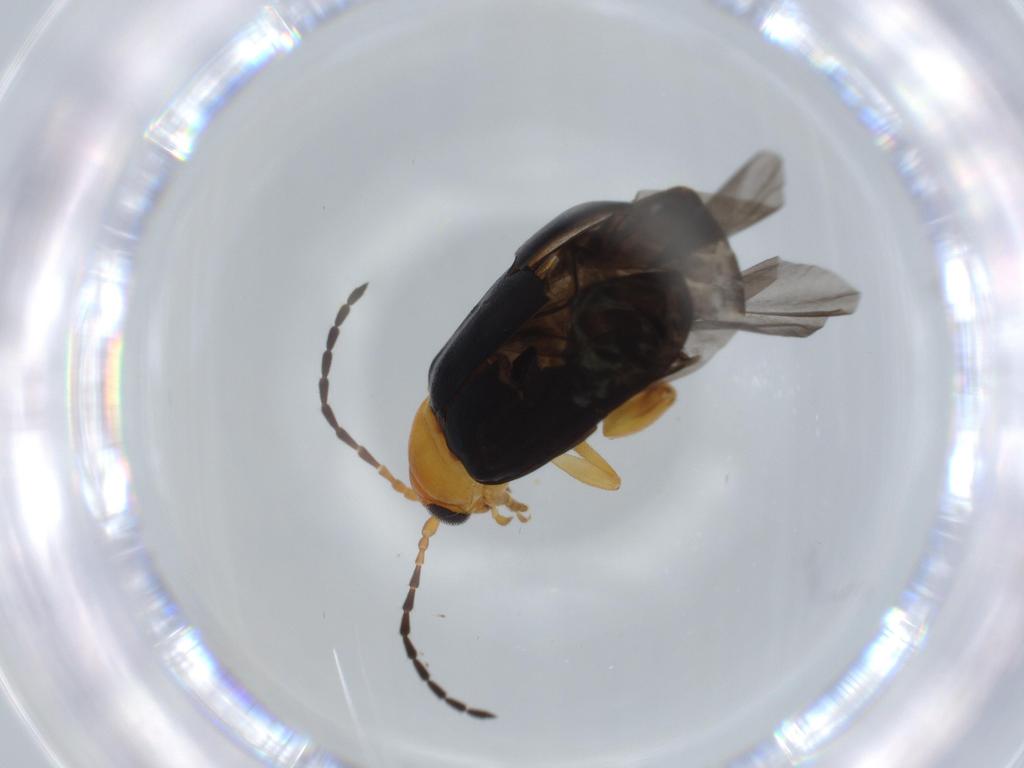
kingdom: Animalia
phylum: Arthropoda
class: Insecta
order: Coleoptera
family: Chrysomelidae
